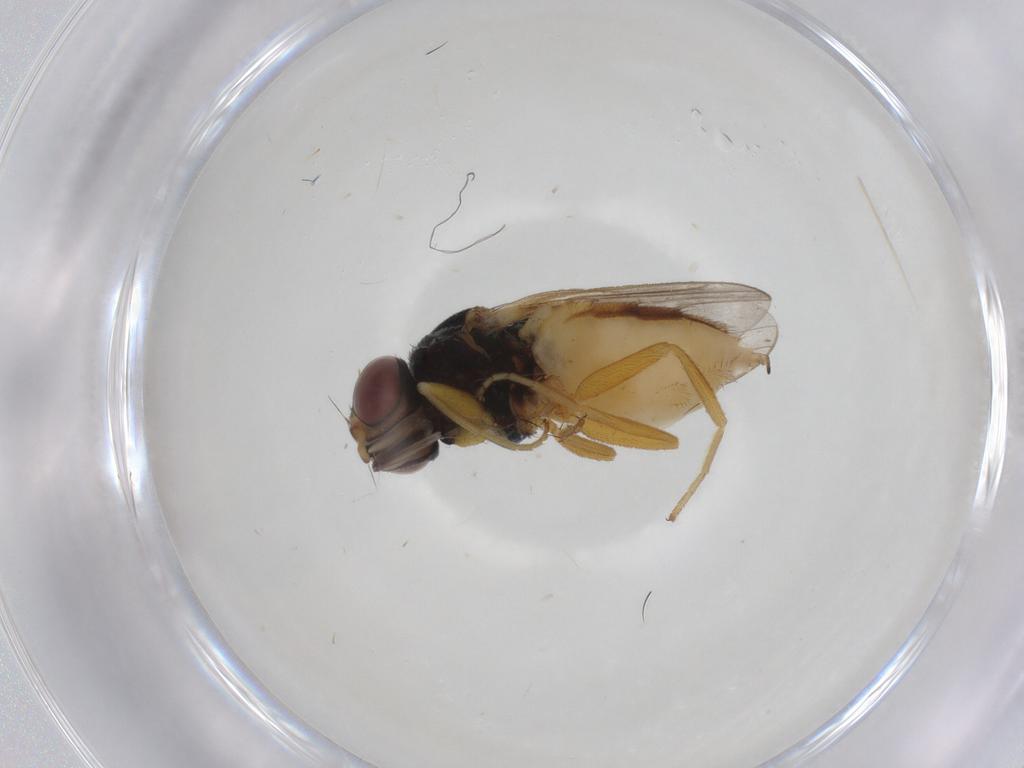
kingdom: Animalia
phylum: Arthropoda
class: Insecta
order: Diptera
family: Chloropidae
